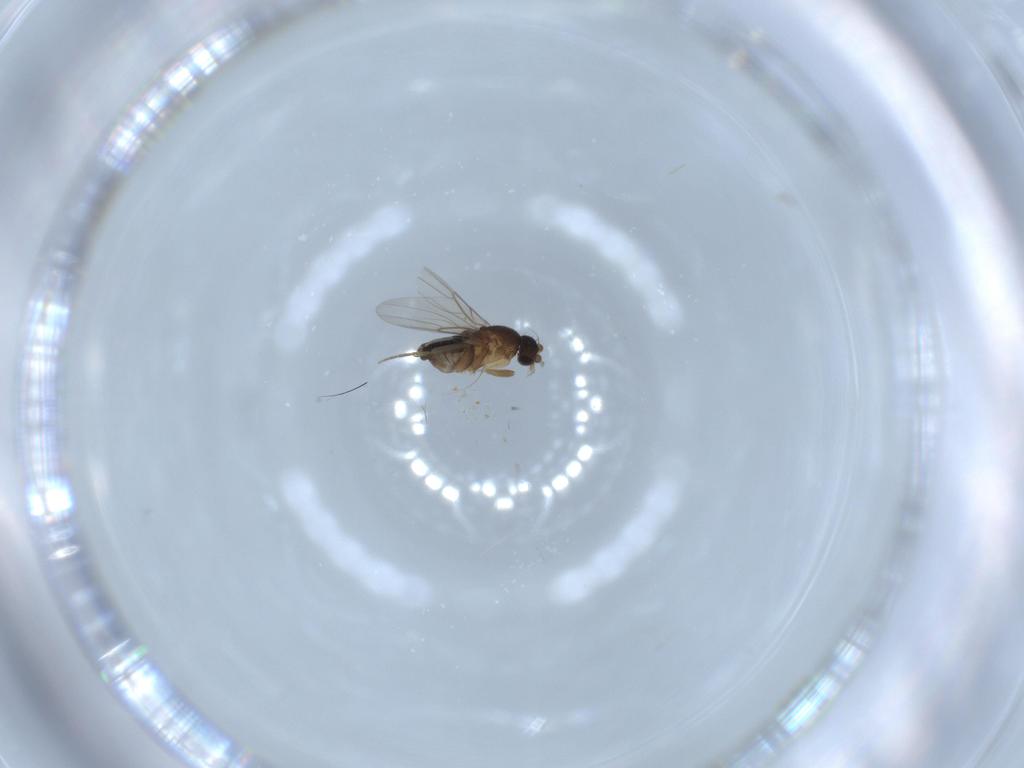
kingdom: Animalia
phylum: Arthropoda
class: Insecta
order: Diptera
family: Phoridae
